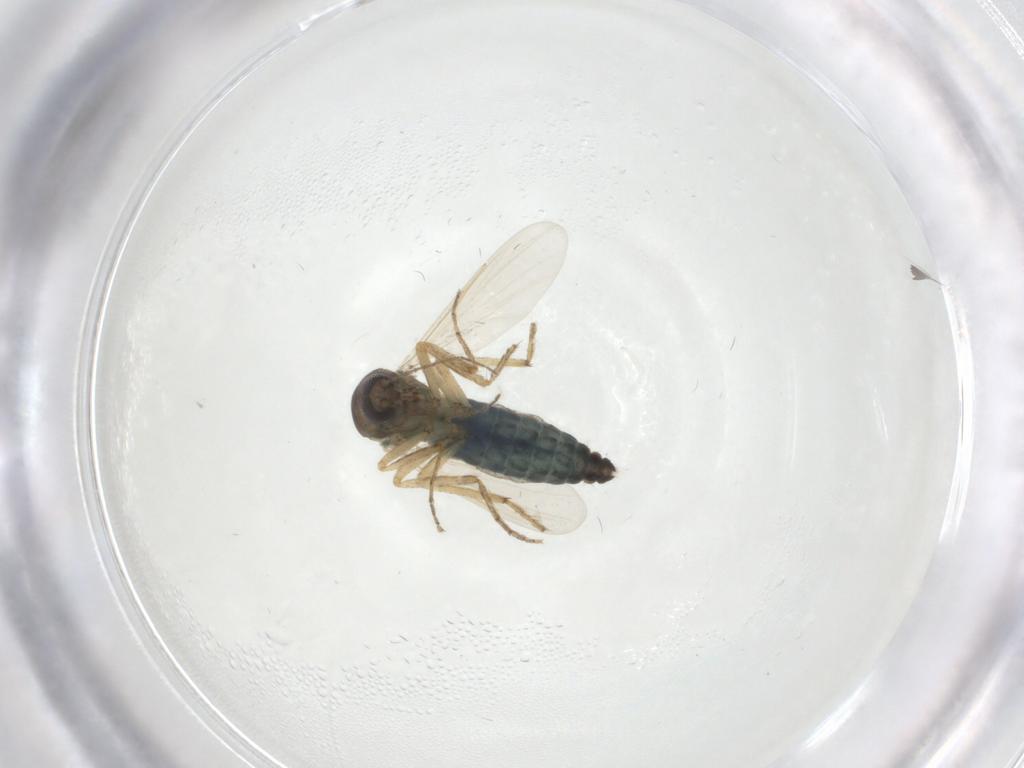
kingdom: Animalia
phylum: Arthropoda
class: Insecta
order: Diptera
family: Ceratopogonidae
